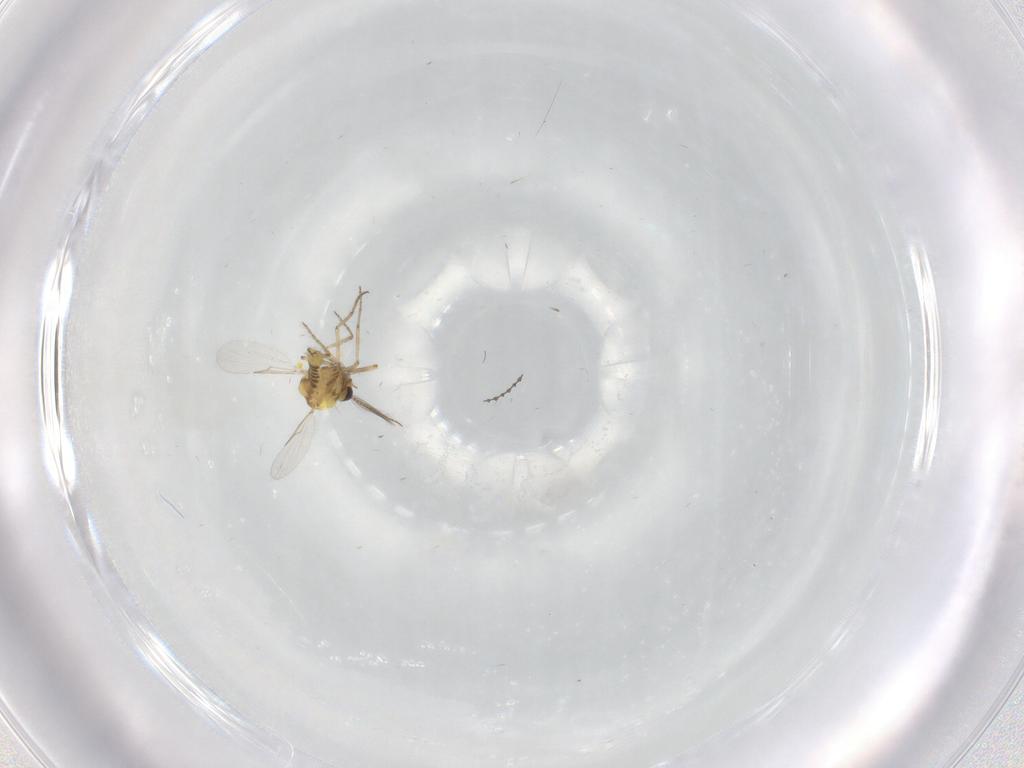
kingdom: Animalia
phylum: Arthropoda
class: Insecta
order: Diptera
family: Ceratopogonidae
